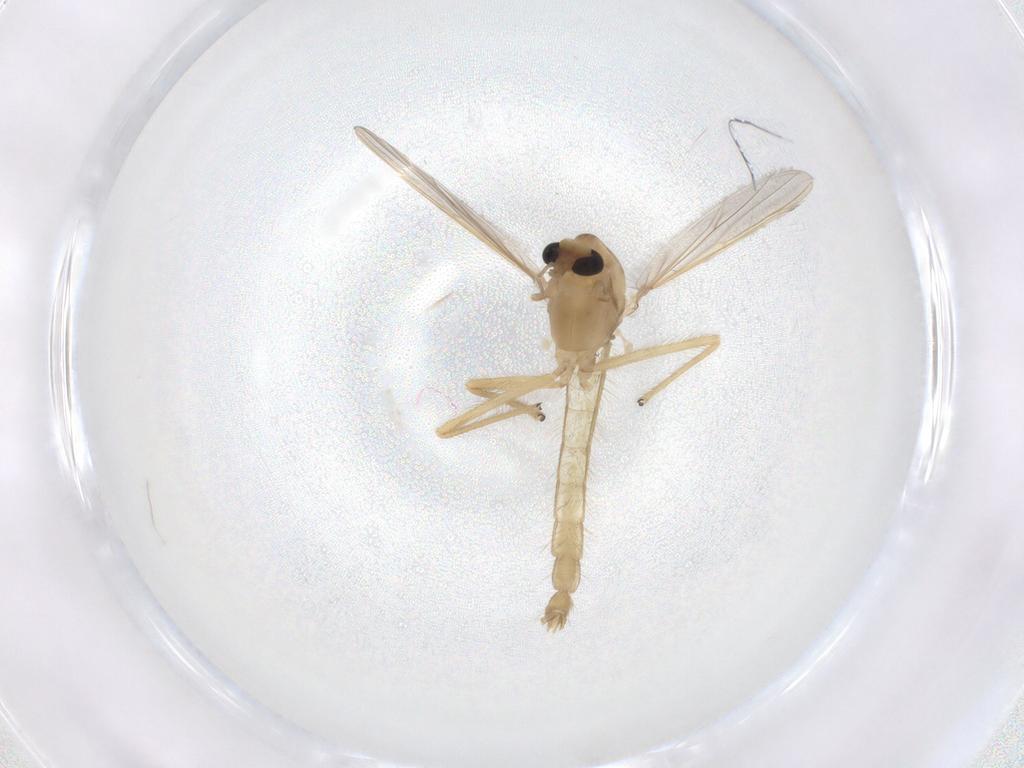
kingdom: Animalia
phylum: Arthropoda
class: Insecta
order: Diptera
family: Chironomidae
